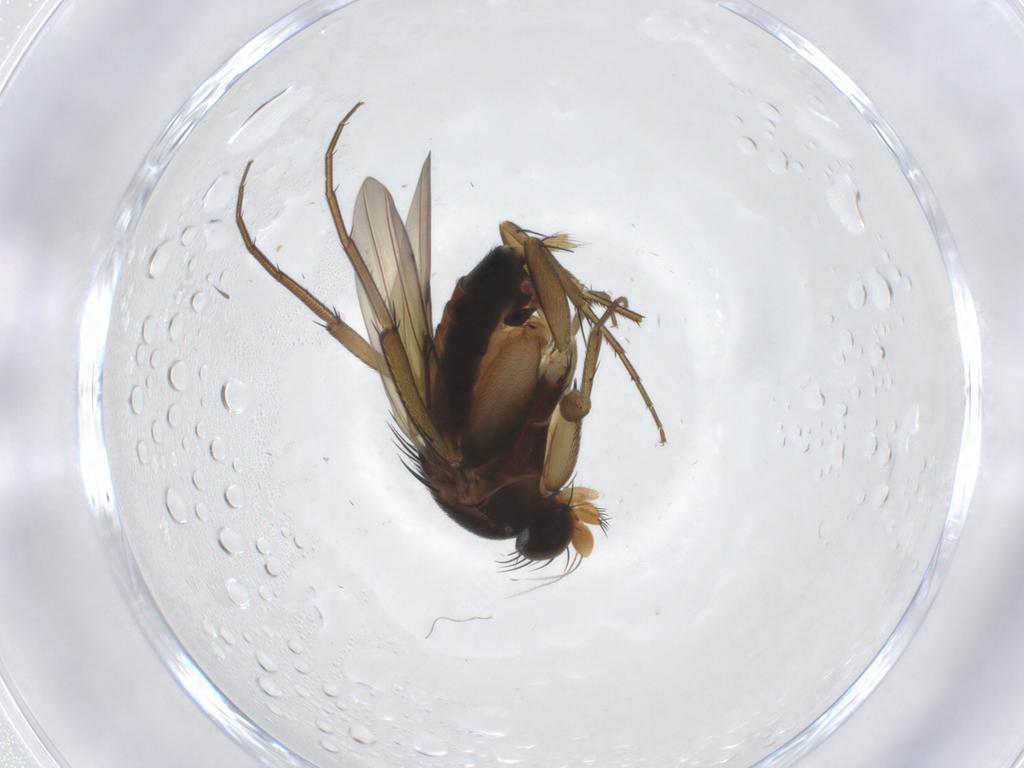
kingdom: Animalia
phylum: Arthropoda
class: Insecta
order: Diptera
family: Phoridae
